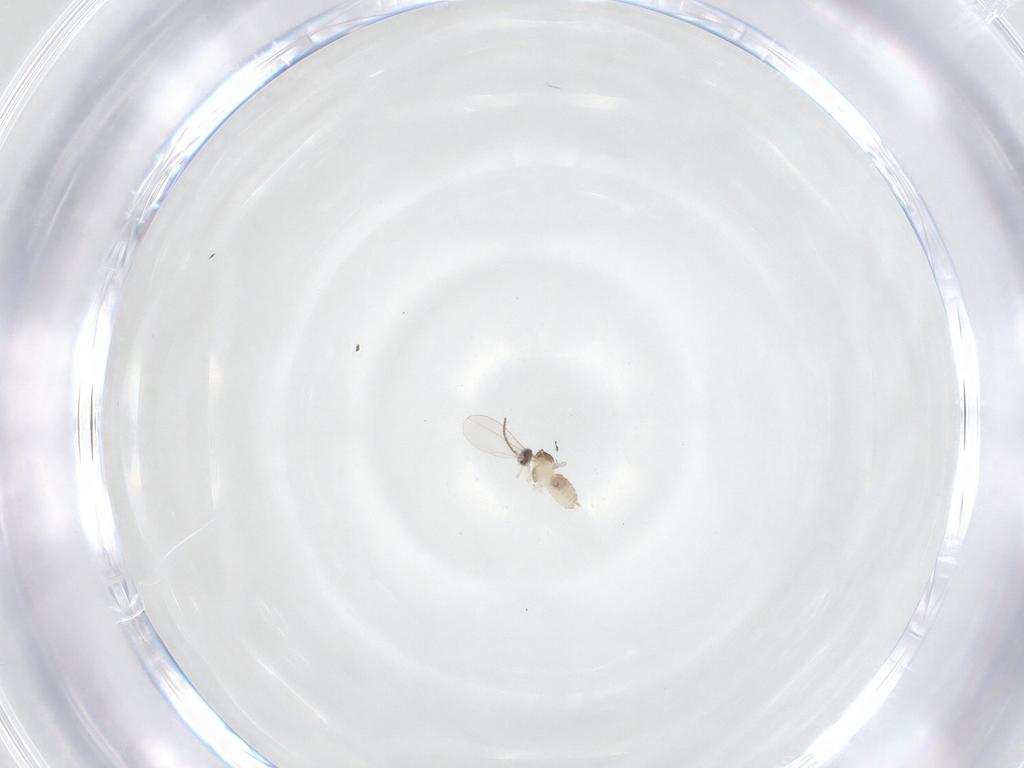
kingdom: Animalia
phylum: Arthropoda
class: Insecta
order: Diptera
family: Cecidomyiidae
